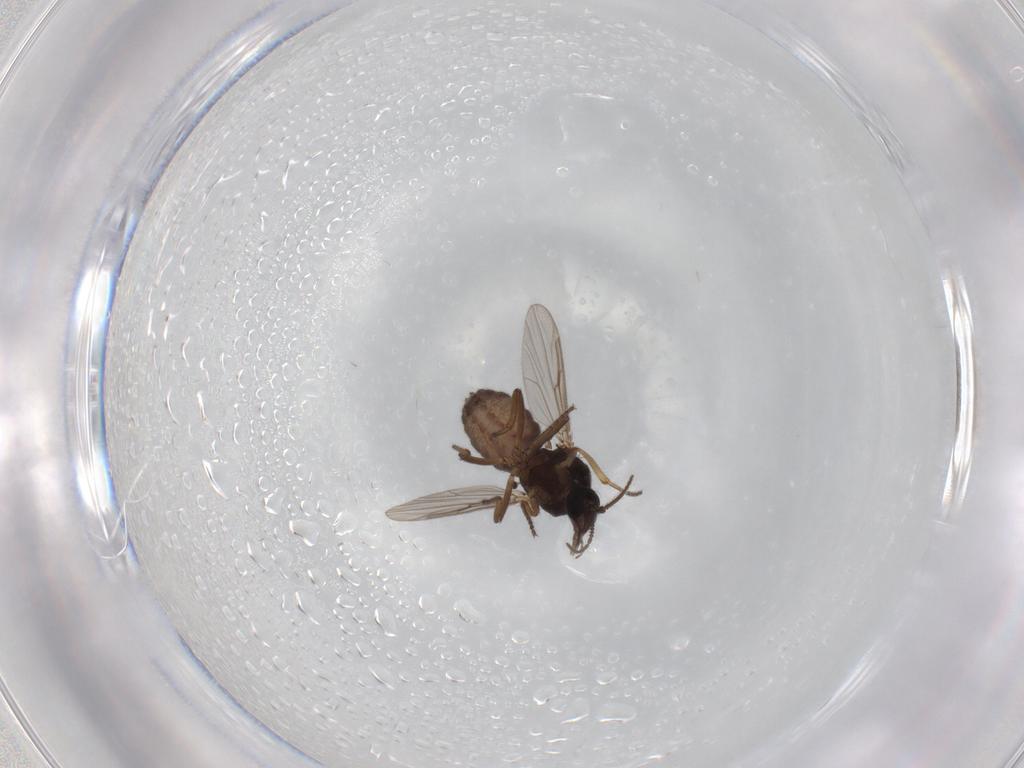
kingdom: Animalia
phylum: Arthropoda
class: Insecta
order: Diptera
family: Ceratopogonidae
